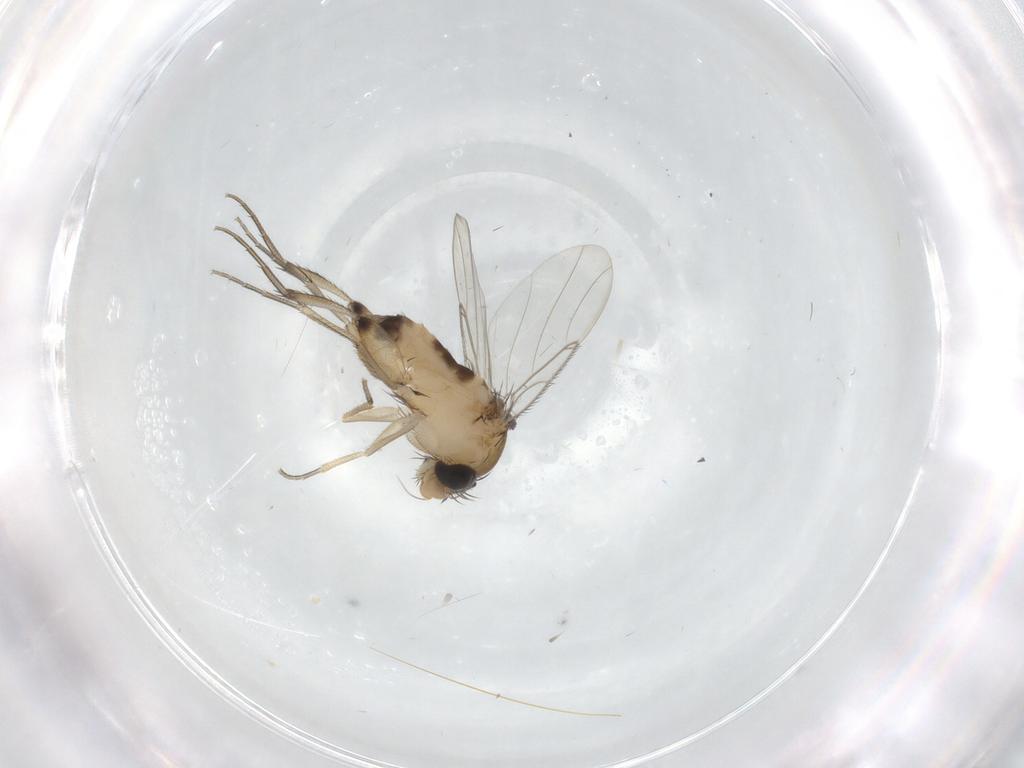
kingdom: Animalia
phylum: Arthropoda
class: Insecta
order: Diptera
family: Phoridae
